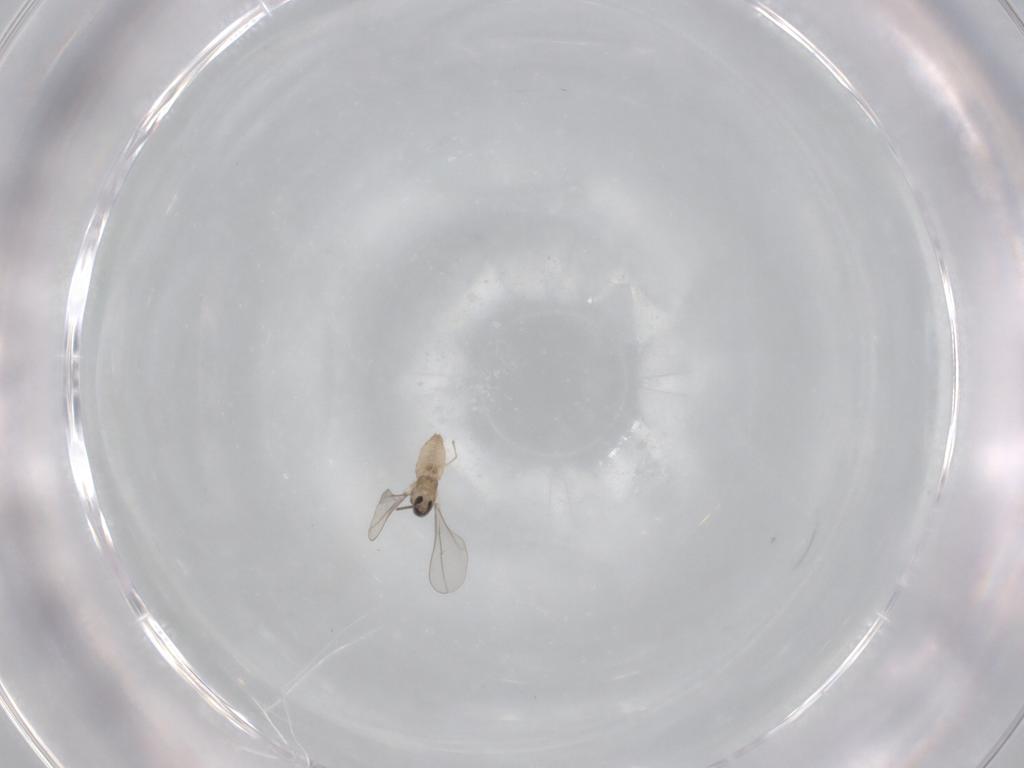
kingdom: Animalia
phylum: Arthropoda
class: Insecta
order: Diptera
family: Cecidomyiidae
